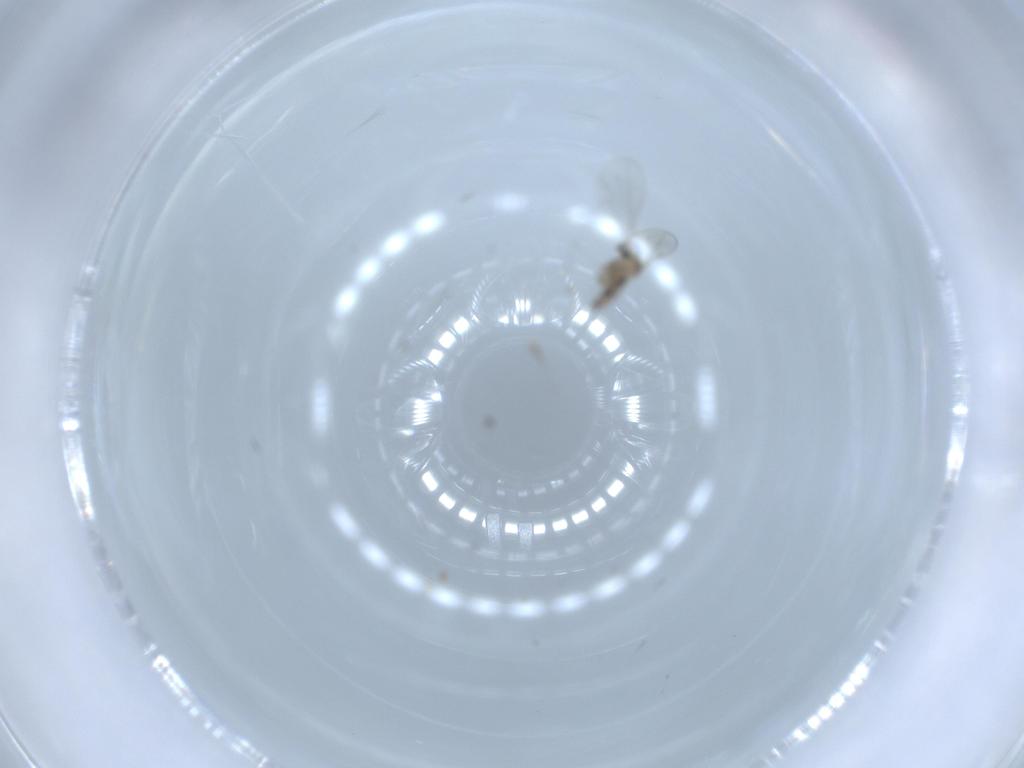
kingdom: Animalia
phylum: Arthropoda
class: Insecta
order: Diptera
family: Cecidomyiidae
